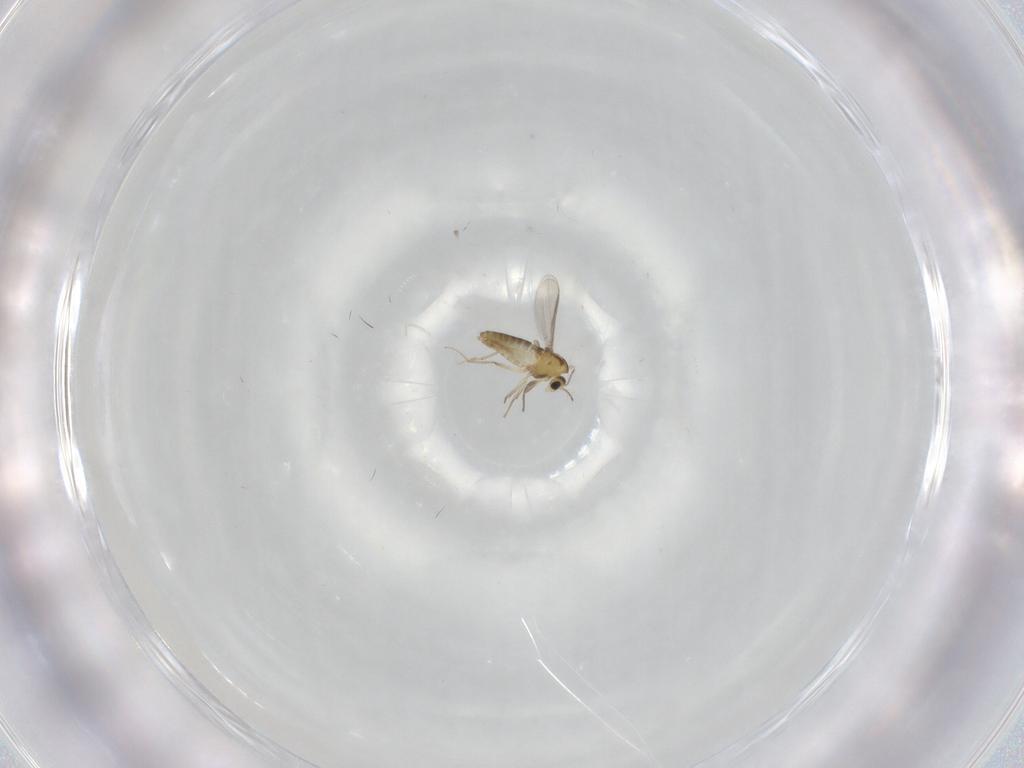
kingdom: Animalia
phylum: Arthropoda
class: Insecta
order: Diptera
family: Chironomidae
